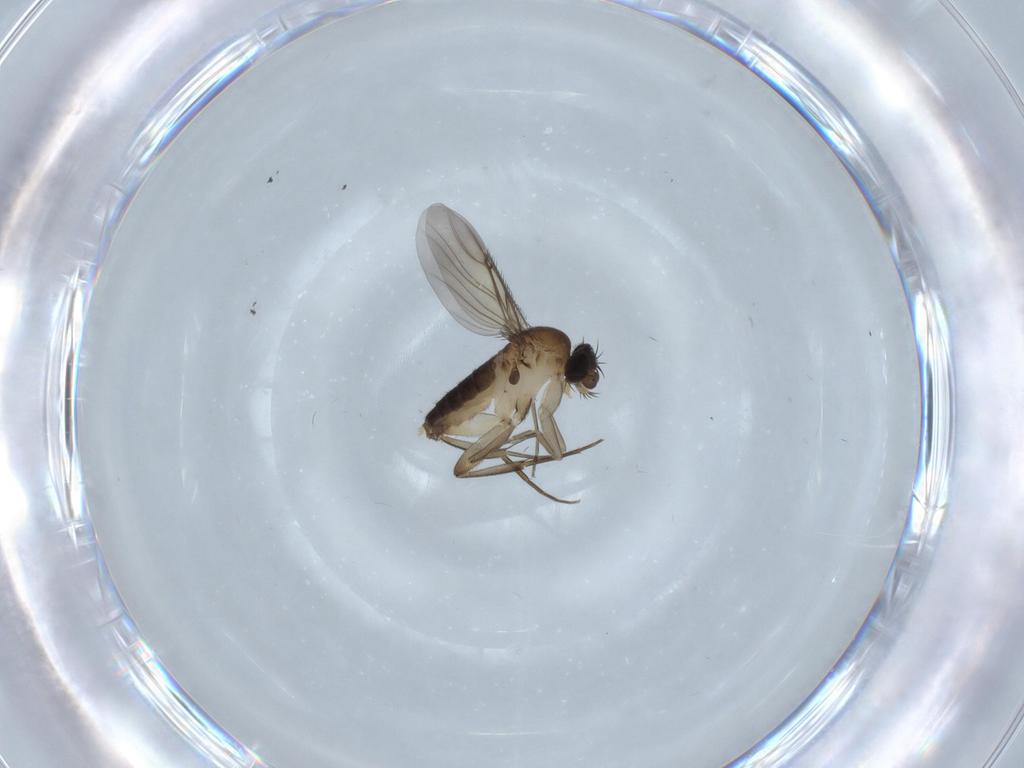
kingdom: Animalia
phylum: Arthropoda
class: Insecta
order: Diptera
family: Phoridae
